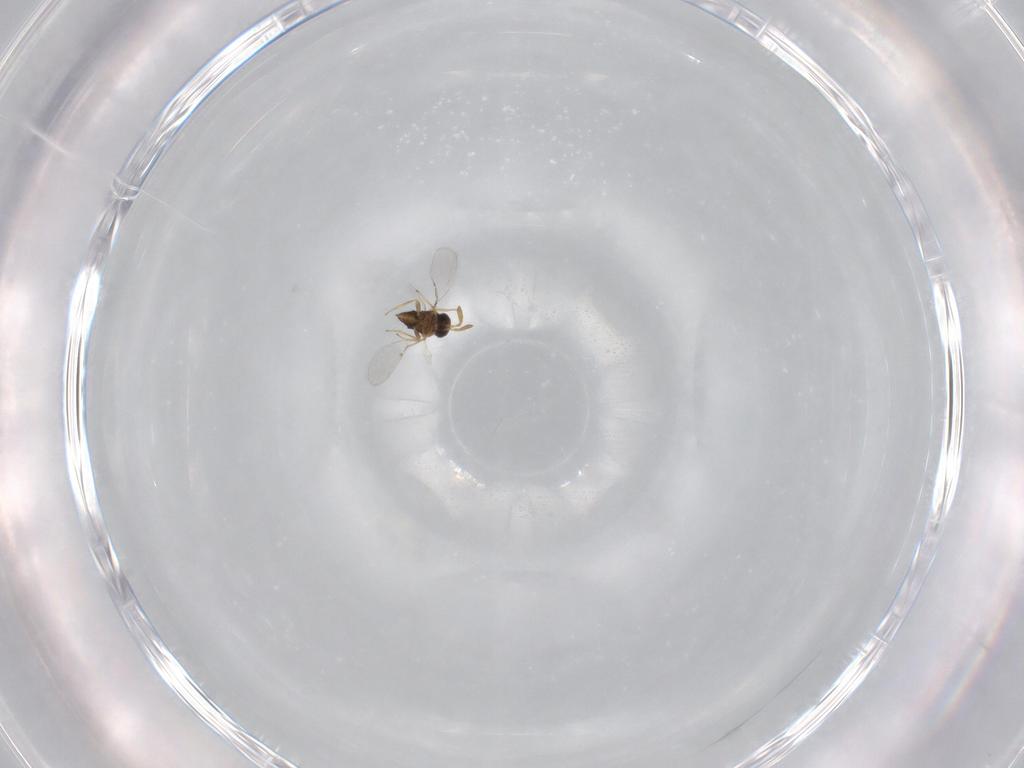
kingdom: Animalia
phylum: Arthropoda
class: Insecta
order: Hymenoptera
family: Encyrtidae
